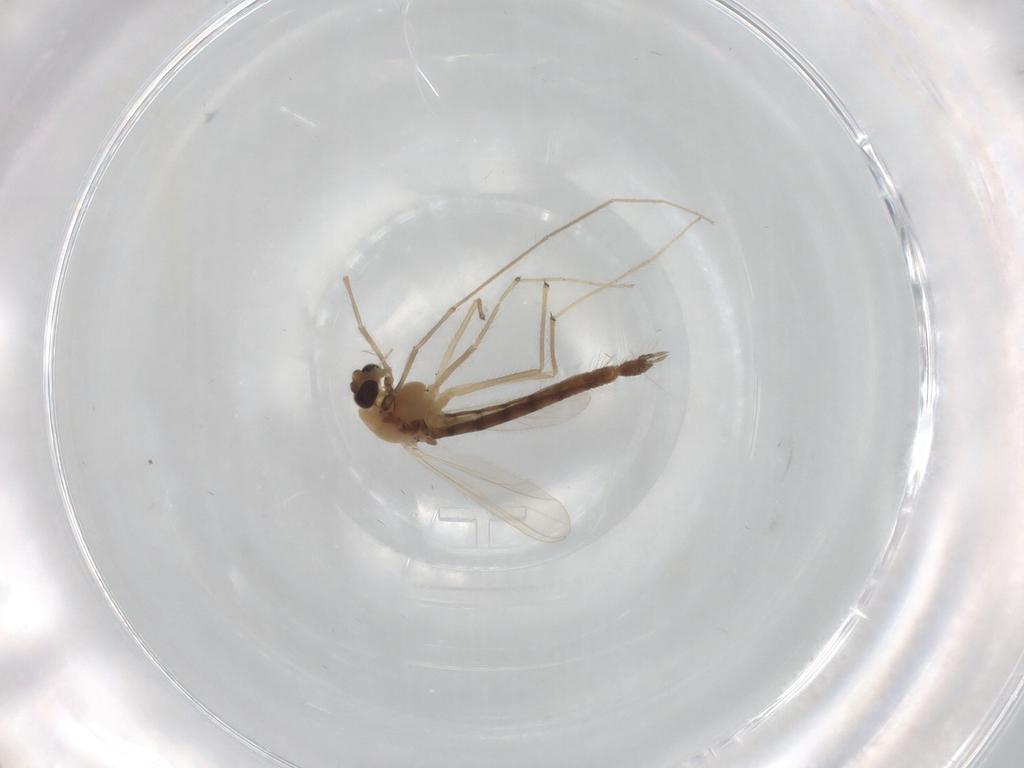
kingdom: Animalia
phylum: Arthropoda
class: Insecta
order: Diptera
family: Chironomidae
